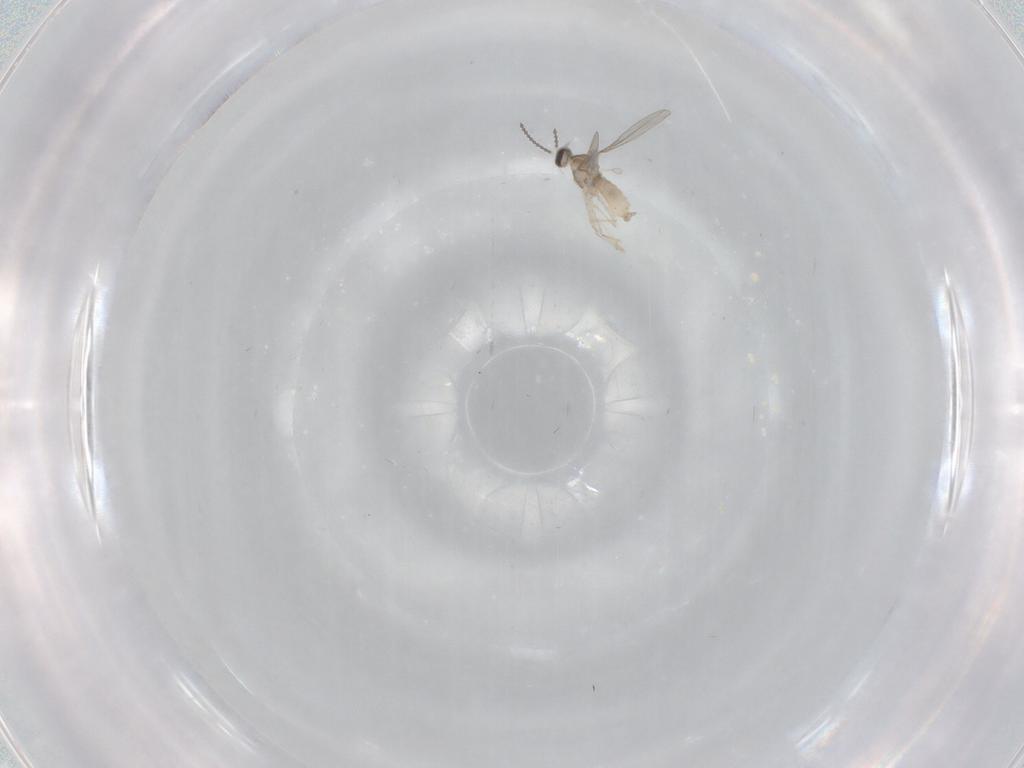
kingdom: Animalia
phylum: Arthropoda
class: Insecta
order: Diptera
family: Cecidomyiidae
